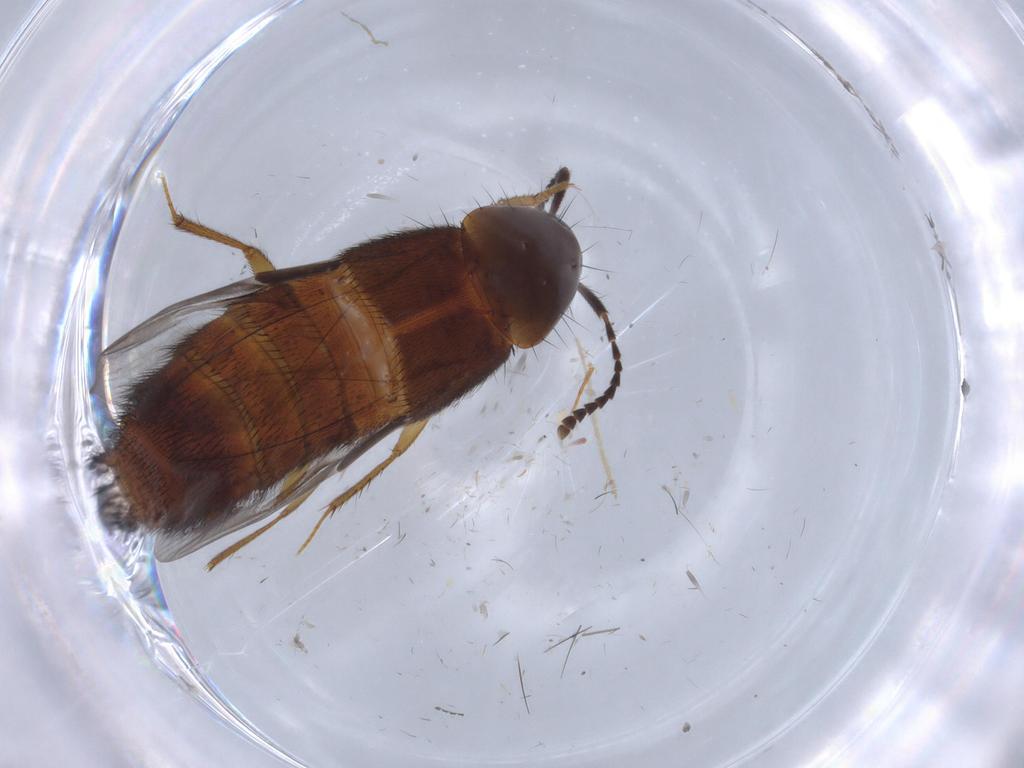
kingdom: Animalia
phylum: Arthropoda
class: Insecta
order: Coleoptera
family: Staphylinidae
